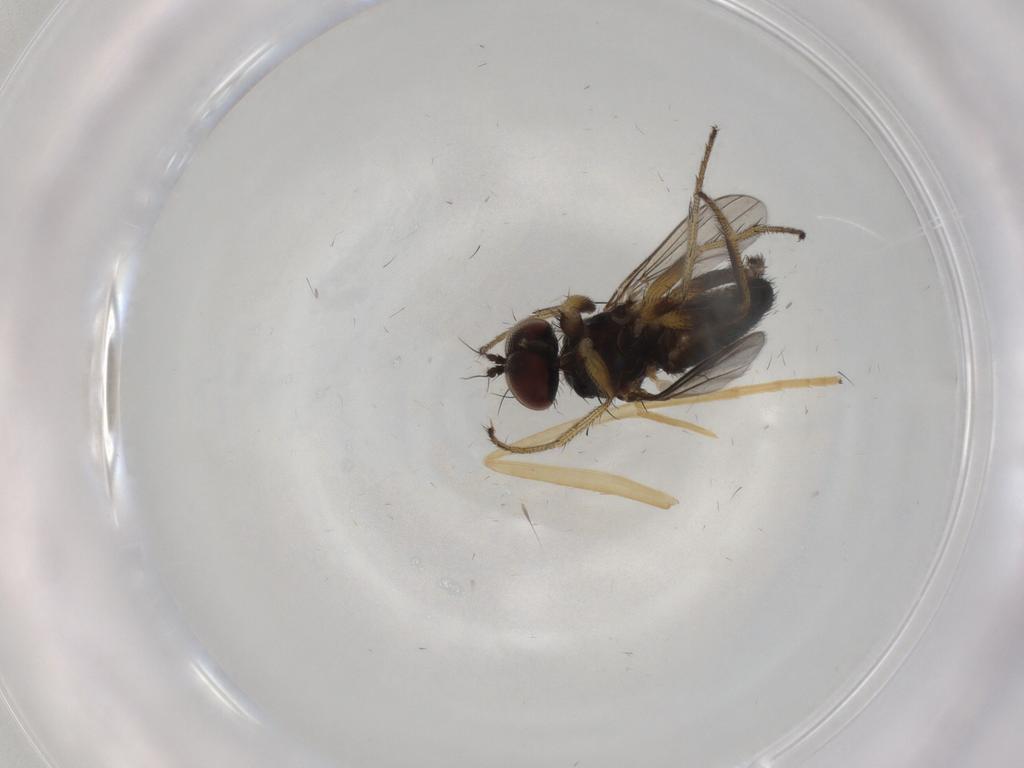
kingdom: Animalia
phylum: Arthropoda
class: Insecta
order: Diptera
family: Dolichopodidae
